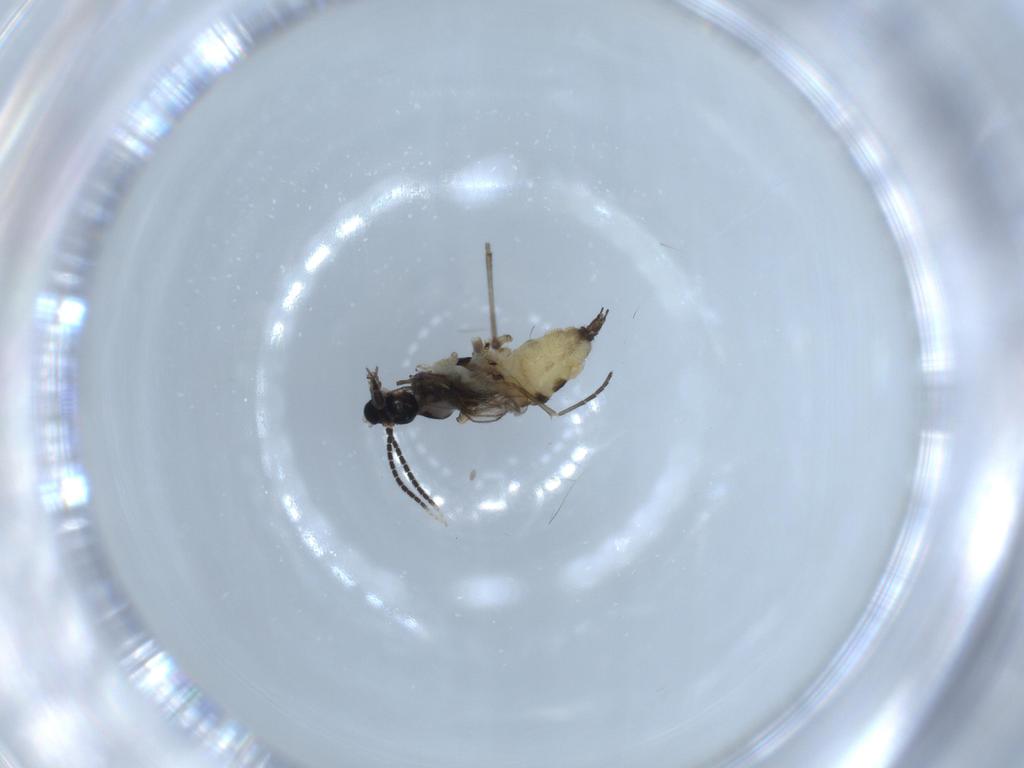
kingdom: Animalia
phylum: Arthropoda
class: Insecta
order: Diptera
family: Sciaridae
